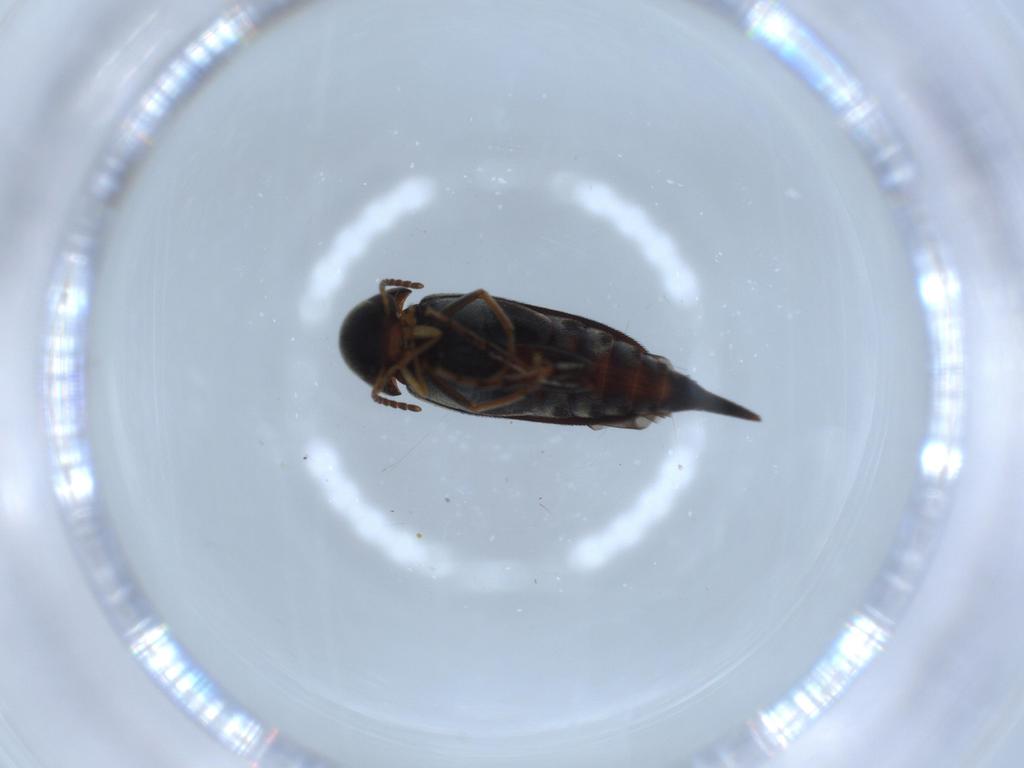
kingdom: Animalia
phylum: Arthropoda
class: Insecta
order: Coleoptera
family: Mordellidae
